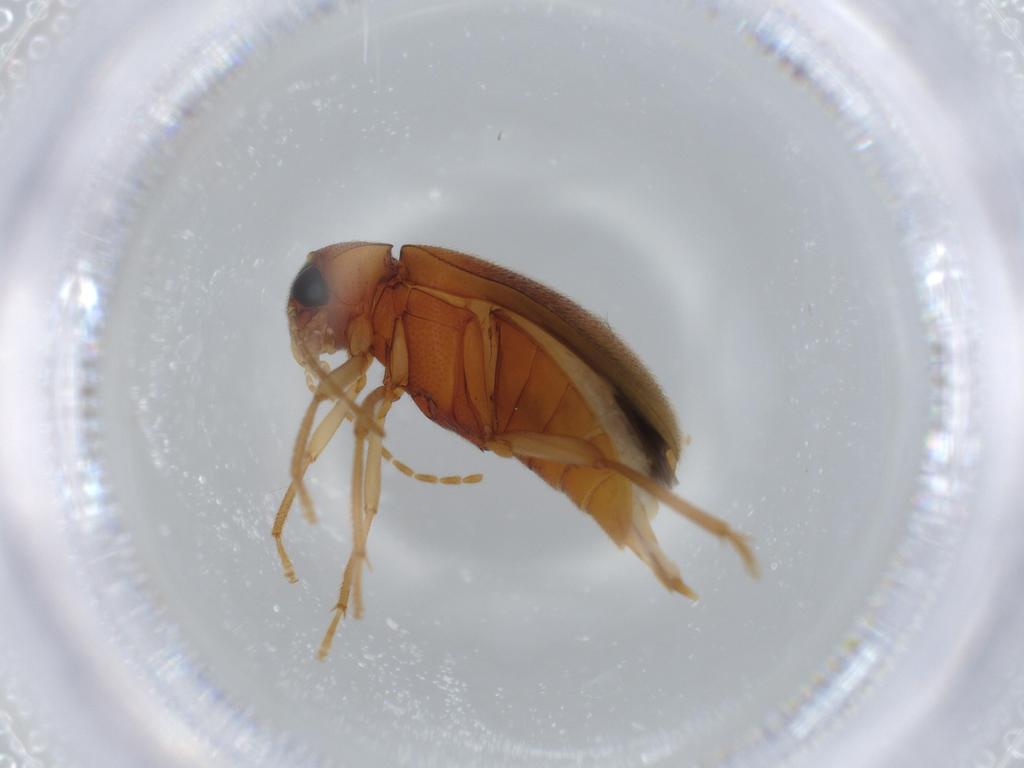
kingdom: Animalia
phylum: Arthropoda
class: Insecta
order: Coleoptera
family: Ptilodactylidae
